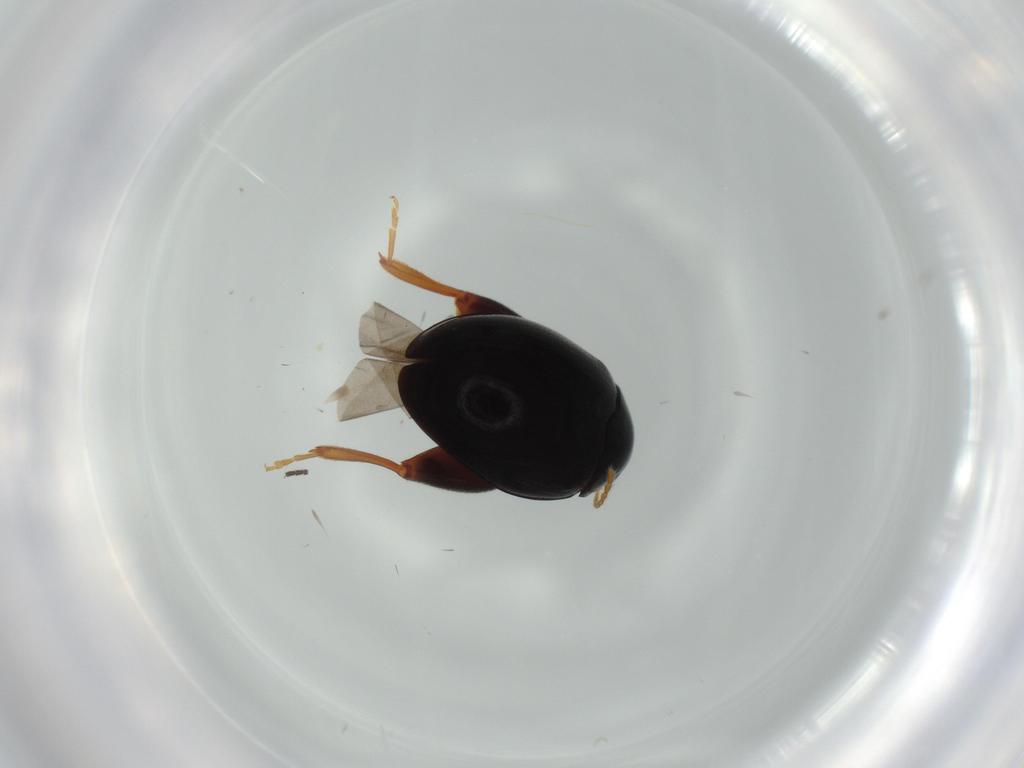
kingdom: Animalia
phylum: Arthropoda
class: Insecta
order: Coleoptera
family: Chrysomelidae
